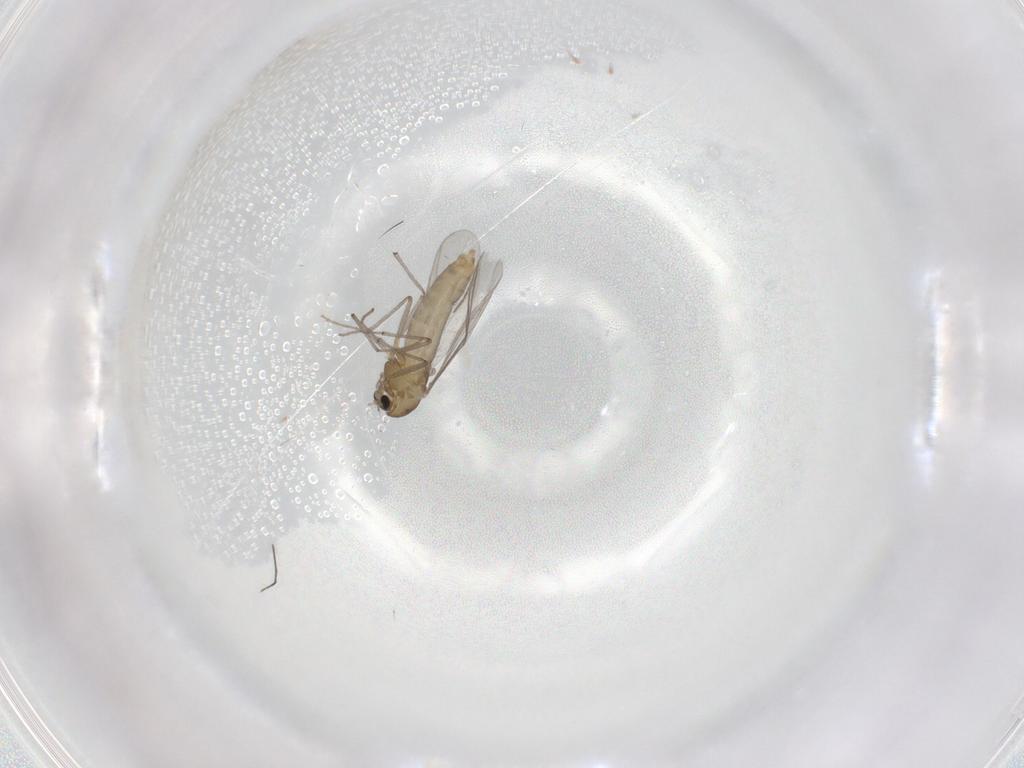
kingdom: Animalia
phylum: Arthropoda
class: Insecta
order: Diptera
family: Chironomidae
